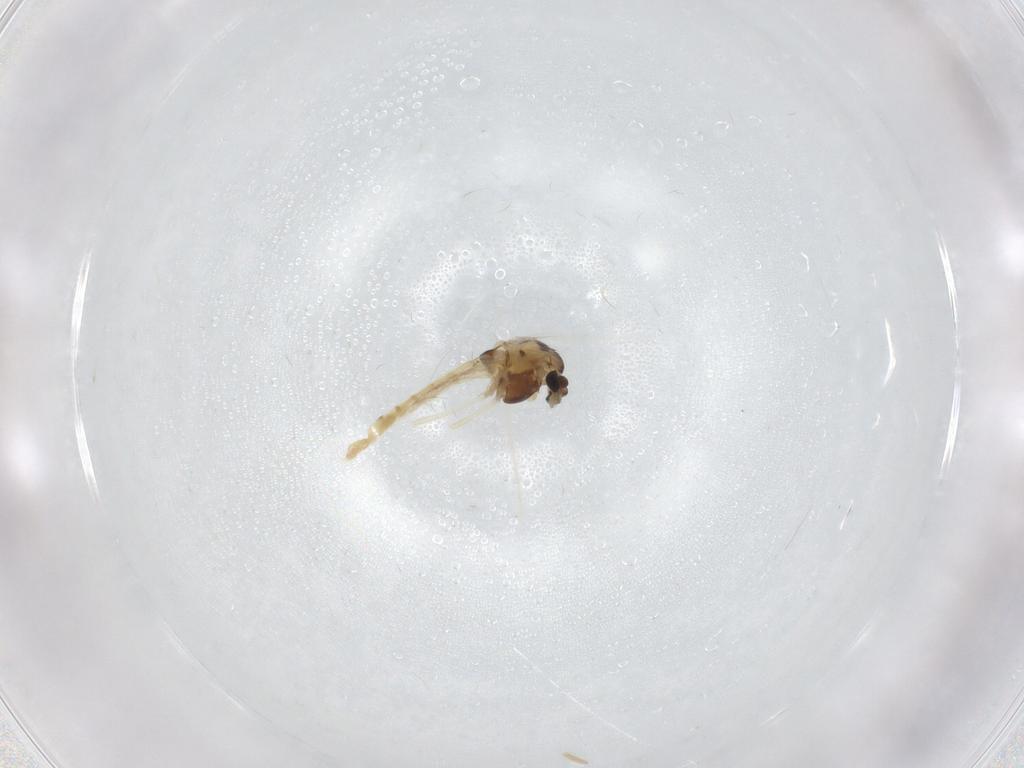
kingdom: Animalia
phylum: Arthropoda
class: Insecta
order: Diptera
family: Chironomidae
